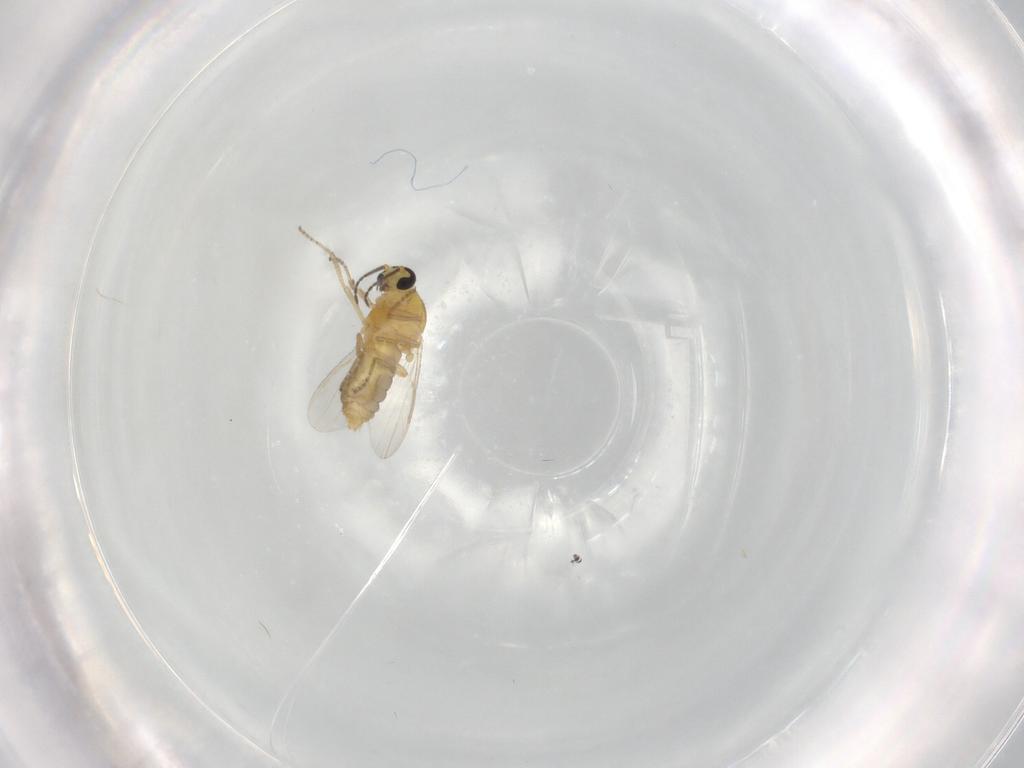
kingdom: Animalia
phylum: Arthropoda
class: Insecta
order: Diptera
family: Ceratopogonidae
